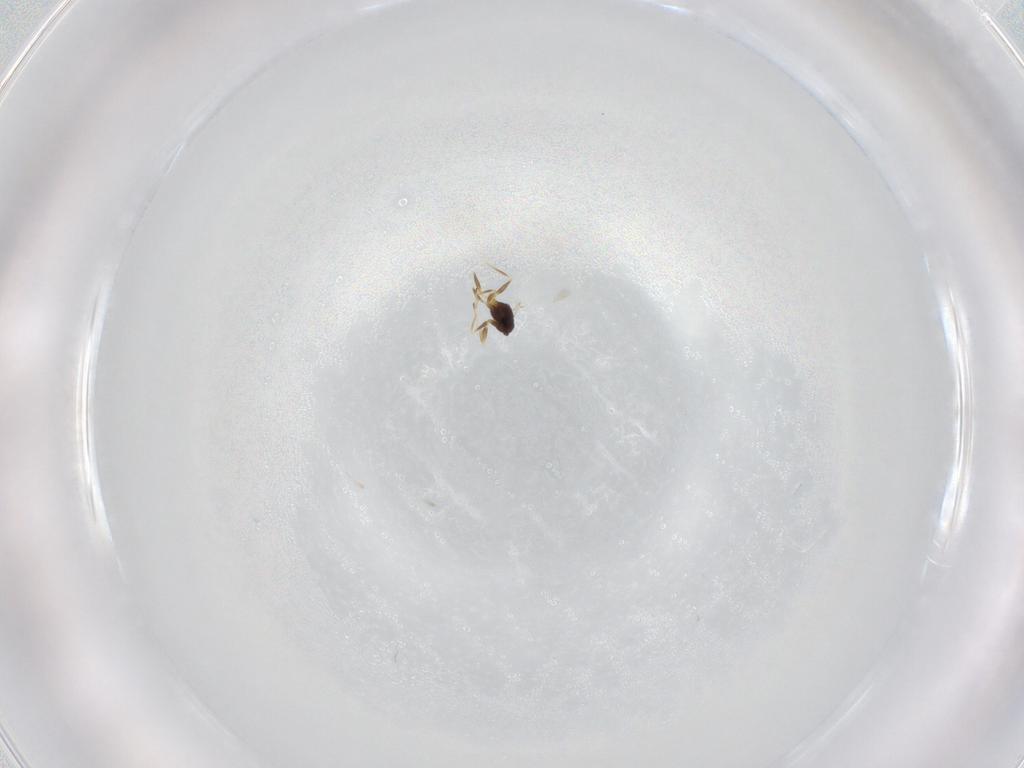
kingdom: Animalia
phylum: Arthropoda
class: Insecta
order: Hymenoptera
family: Mymaridae
